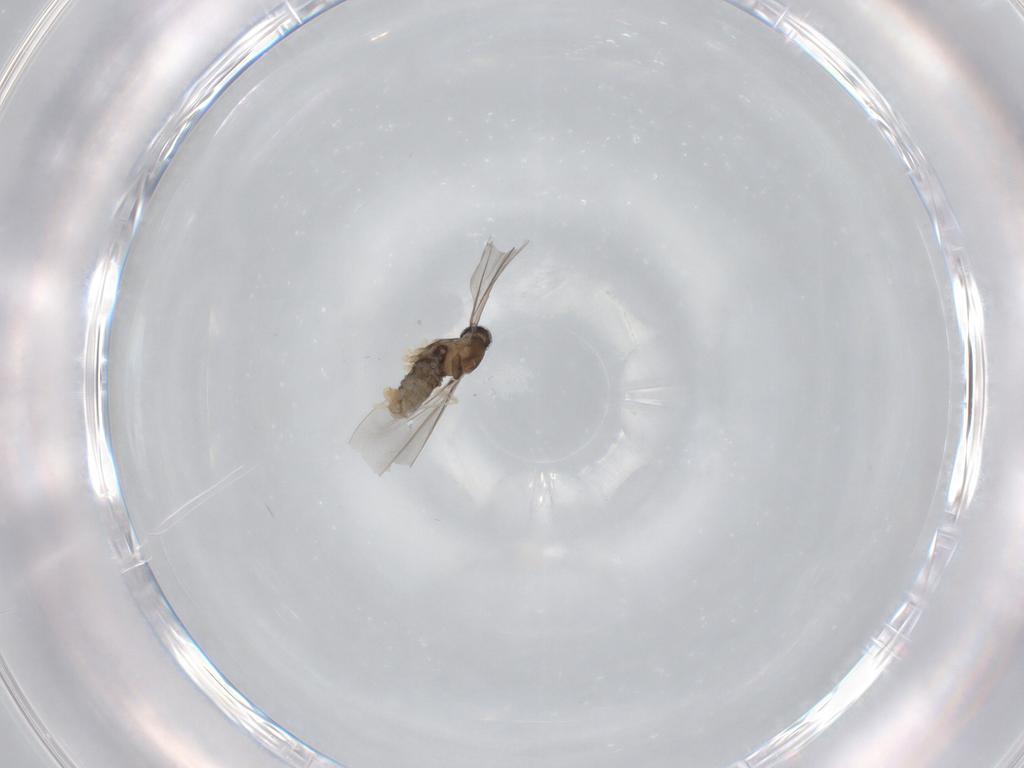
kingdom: Animalia
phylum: Arthropoda
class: Insecta
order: Diptera
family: Cecidomyiidae
